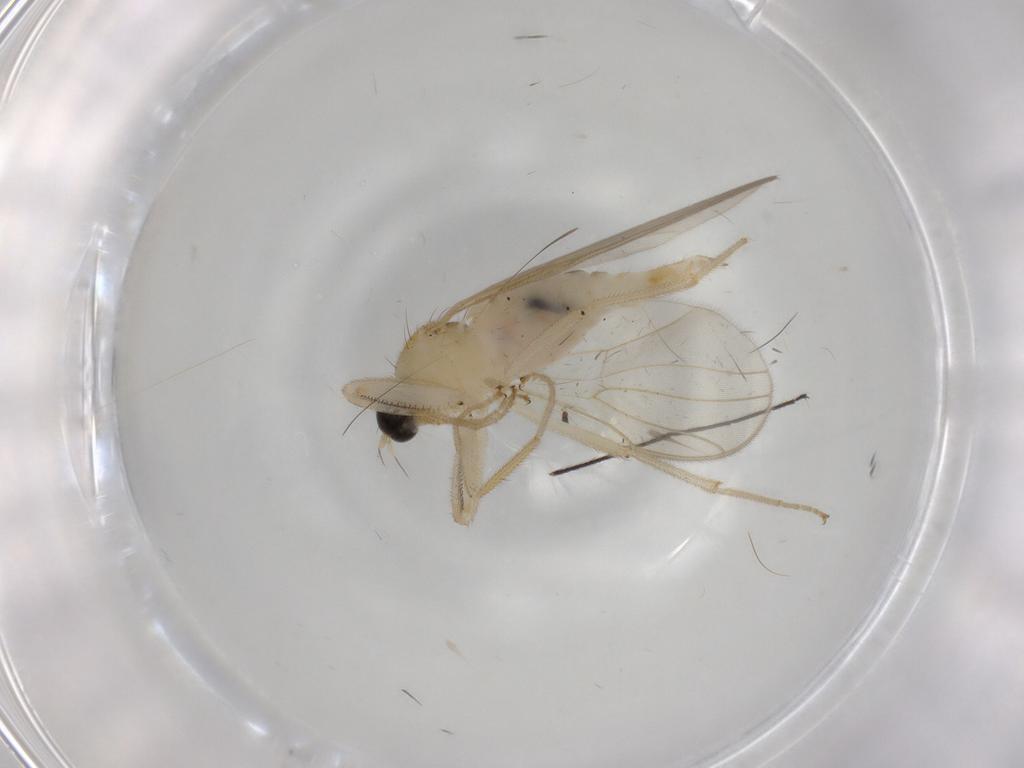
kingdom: Animalia
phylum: Arthropoda
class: Insecta
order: Diptera
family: Hybotidae
